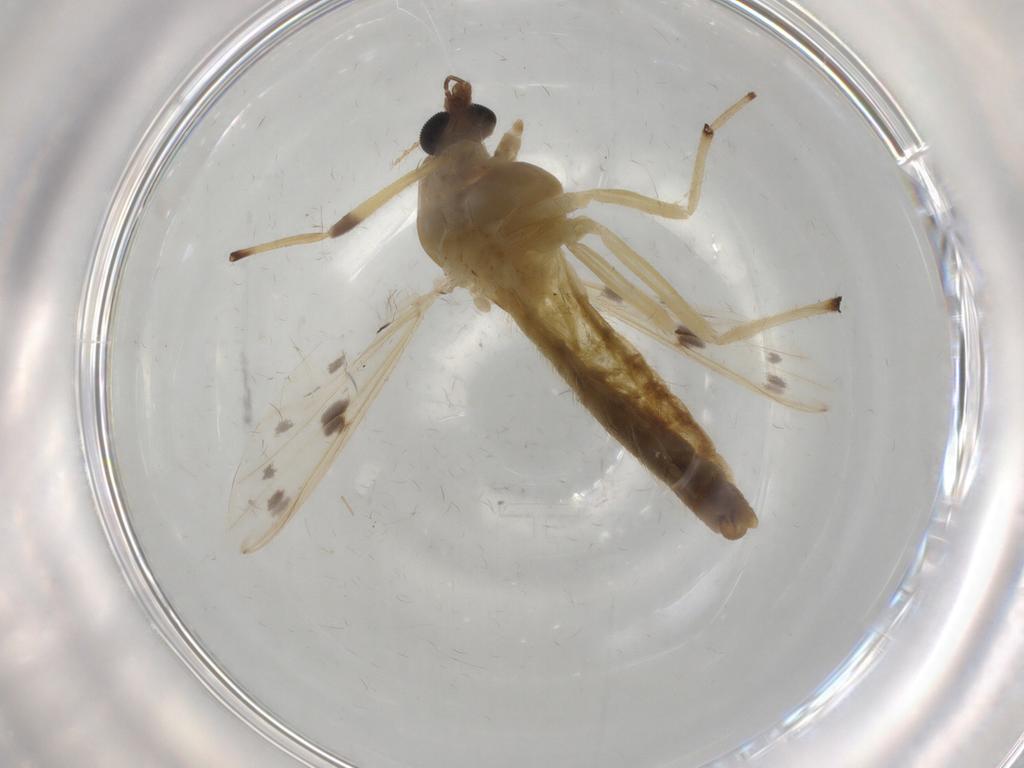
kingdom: Animalia
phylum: Arthropoda
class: Insecta
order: Diptera
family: Chironomidae
